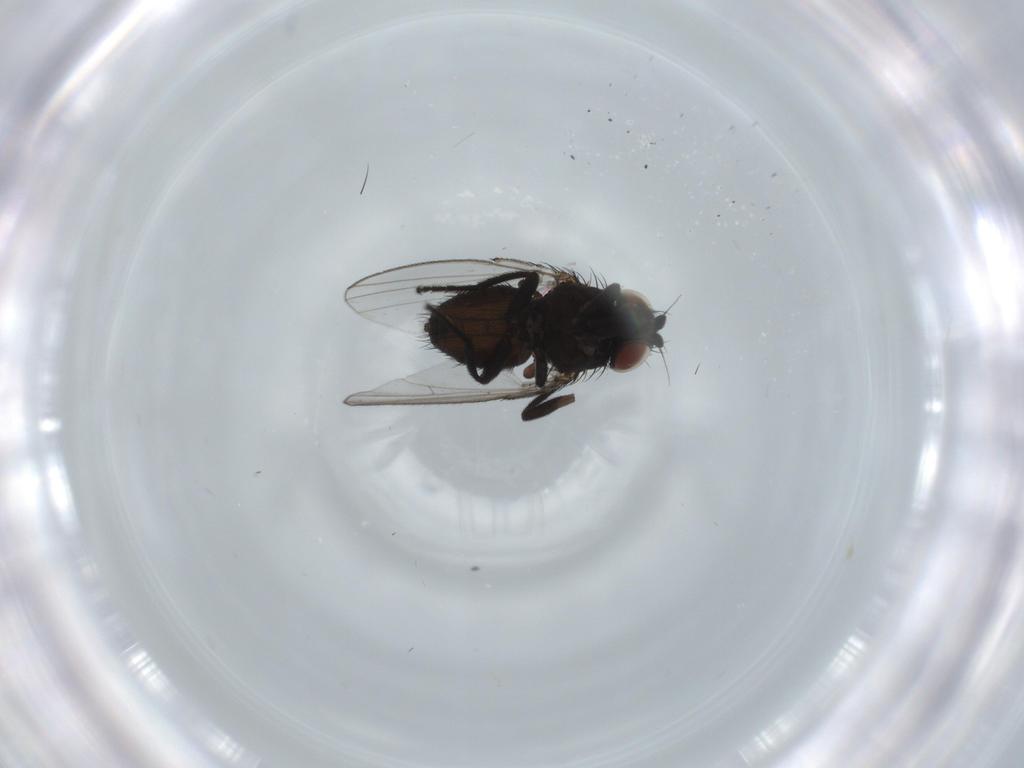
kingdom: Animalia
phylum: Arthropoda
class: Insecta
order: Diptera
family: Milichiidae
